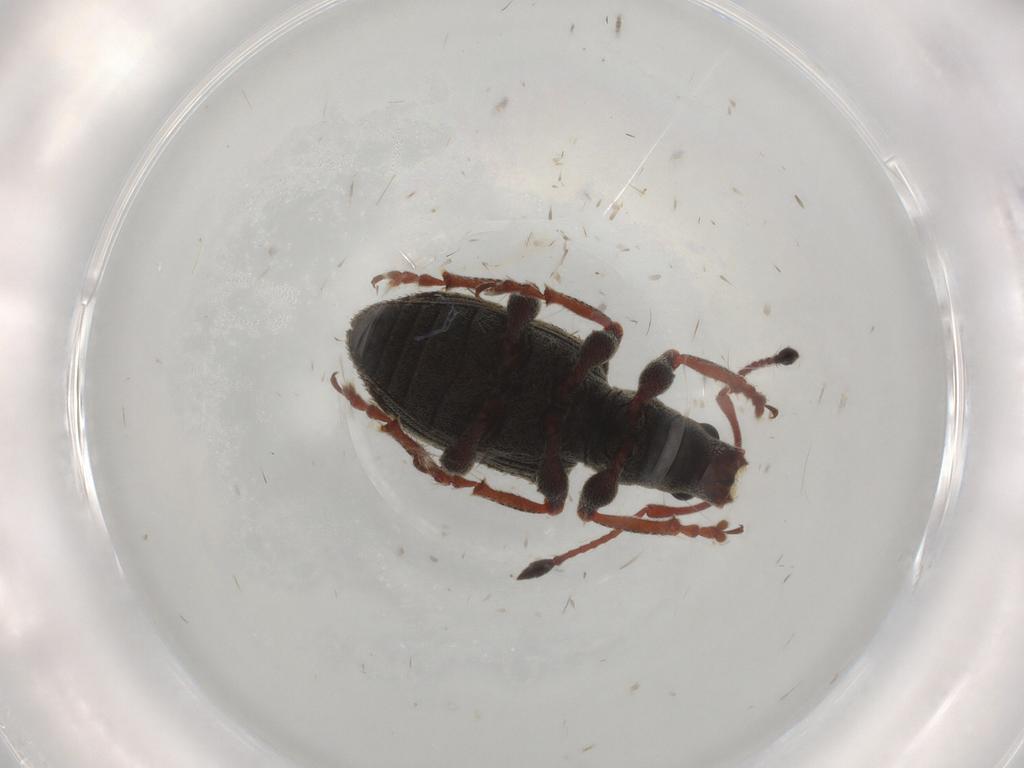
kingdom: Animalia
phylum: Arthropoda
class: Insecta
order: Coleoptera
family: Curculionidae
